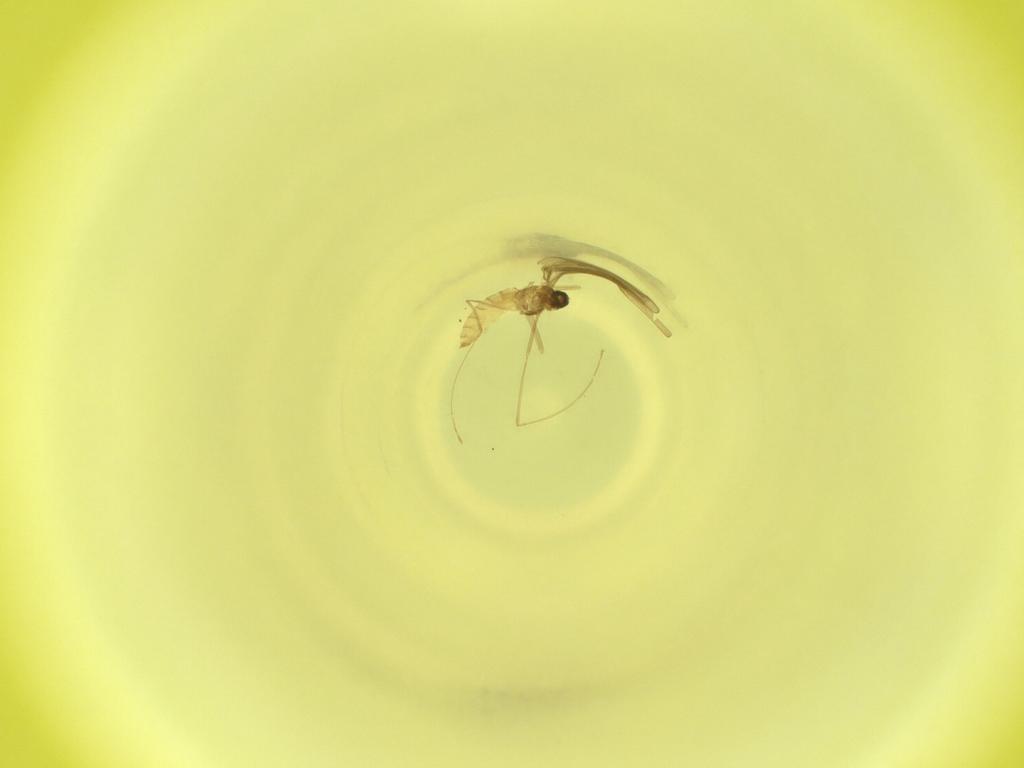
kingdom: Animalia
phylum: Arthropoda
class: Insecta
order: Diptera
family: Cecidomyiidae
